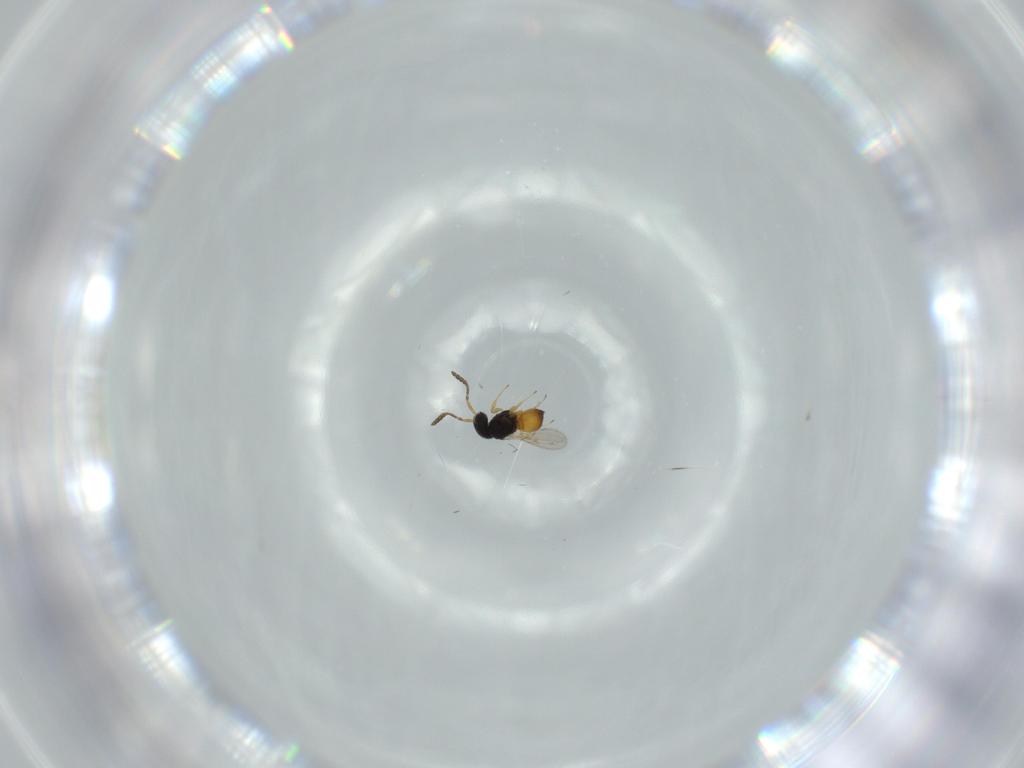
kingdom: Animalia
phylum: Arthropoda
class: Insecta
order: Hymenoptera
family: Scelionidae
